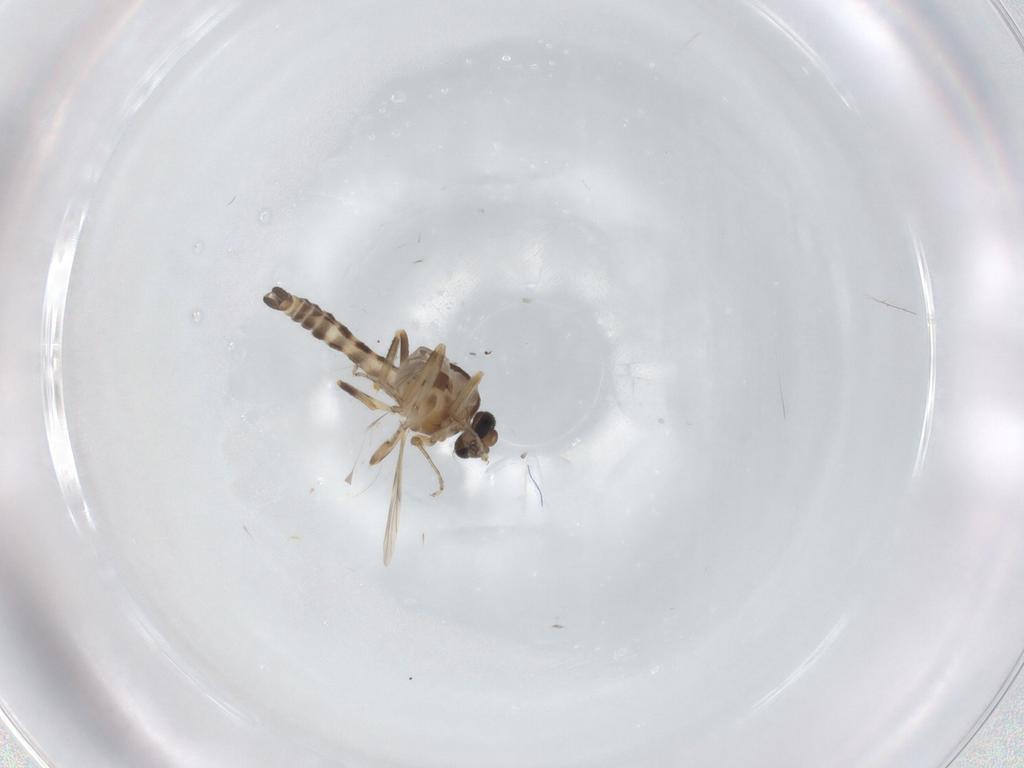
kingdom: Animalia
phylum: Arthropoda
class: Insecta
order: Diptera
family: Ceratopogonidae
